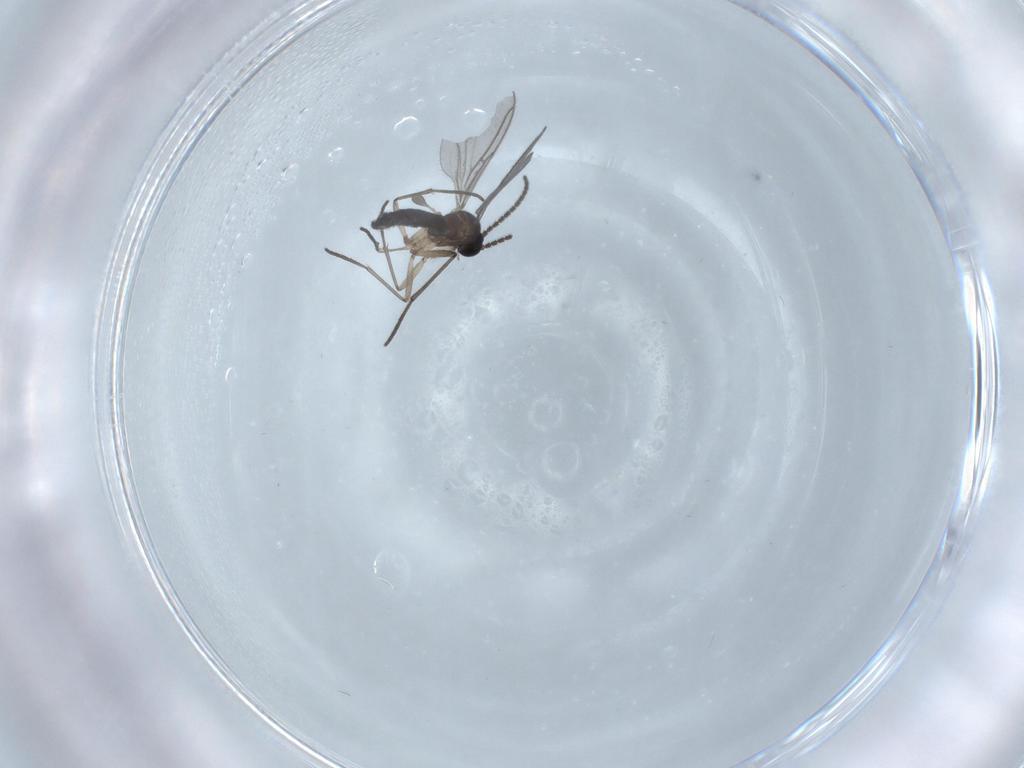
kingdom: Animalia
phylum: Arthropoda
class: Insecta
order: Diptera
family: Sciaridae
